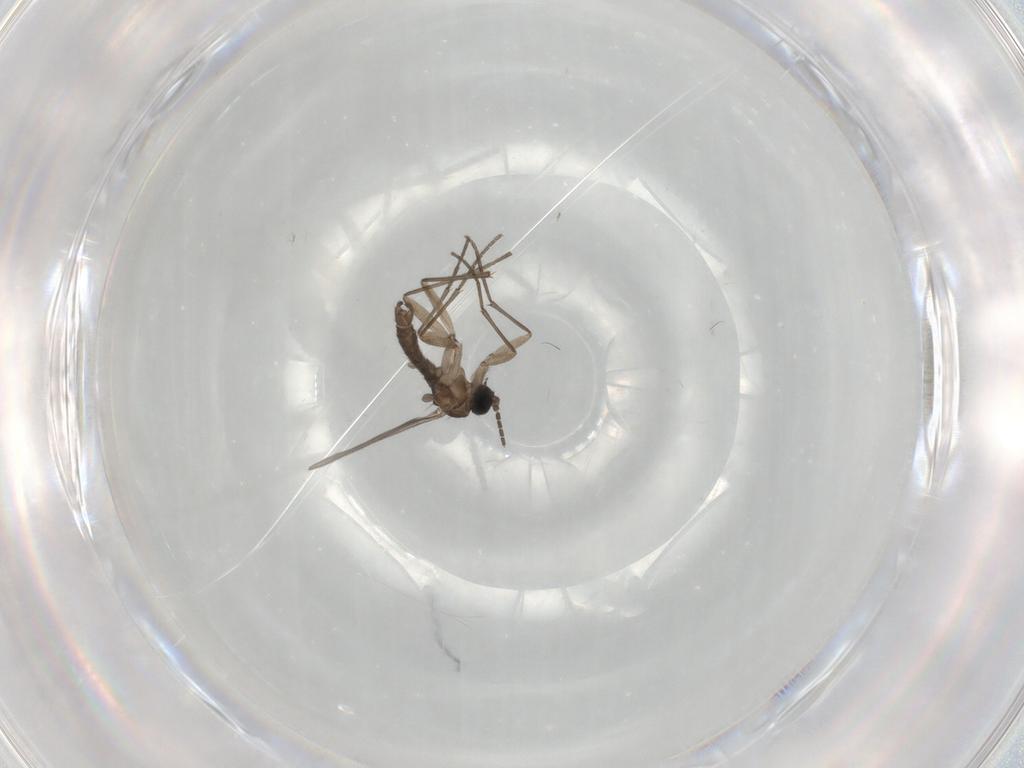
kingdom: Animalia
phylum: Arthropoda
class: Insecta
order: Diptera
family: Sciaridae
